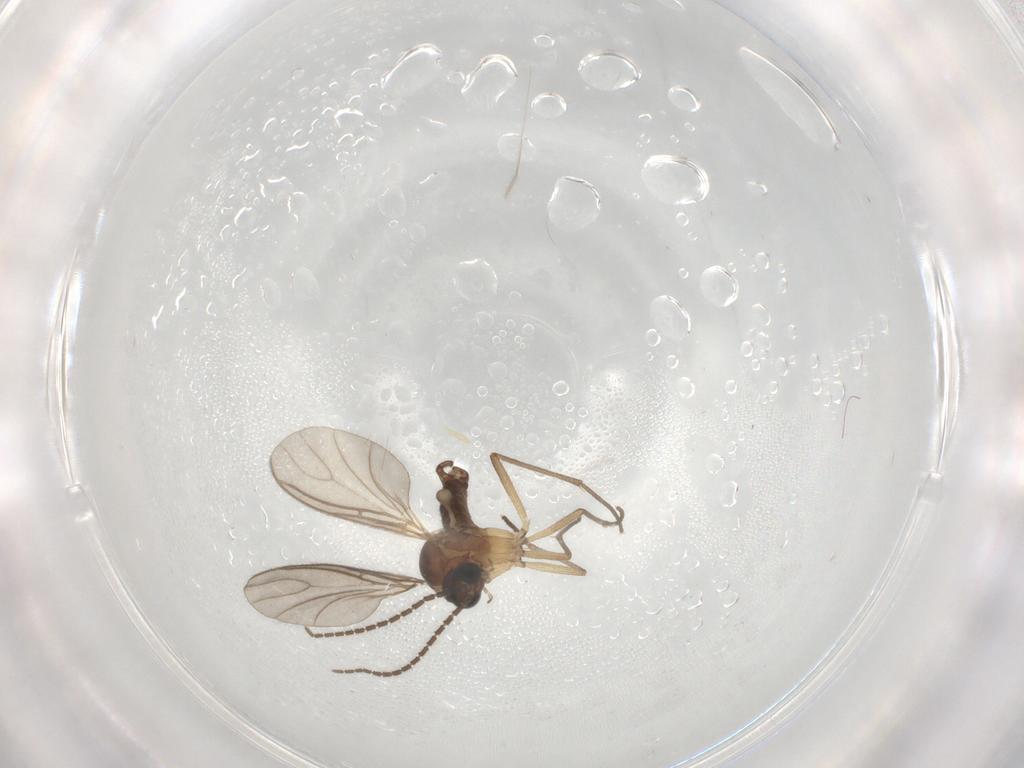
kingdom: Animalia
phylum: Arthropoda
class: Insecta
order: Diptera
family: Sciaridae
